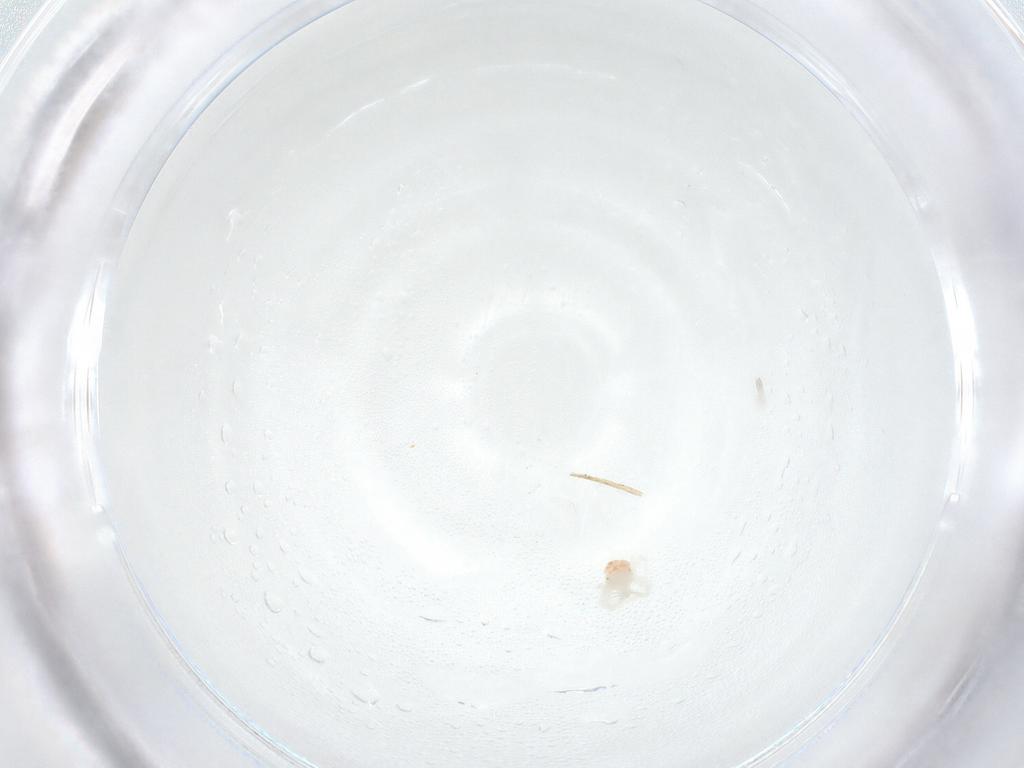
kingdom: Animalia
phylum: Arthropoda
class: Arachnida
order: Trombidiformes
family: Anystidae
